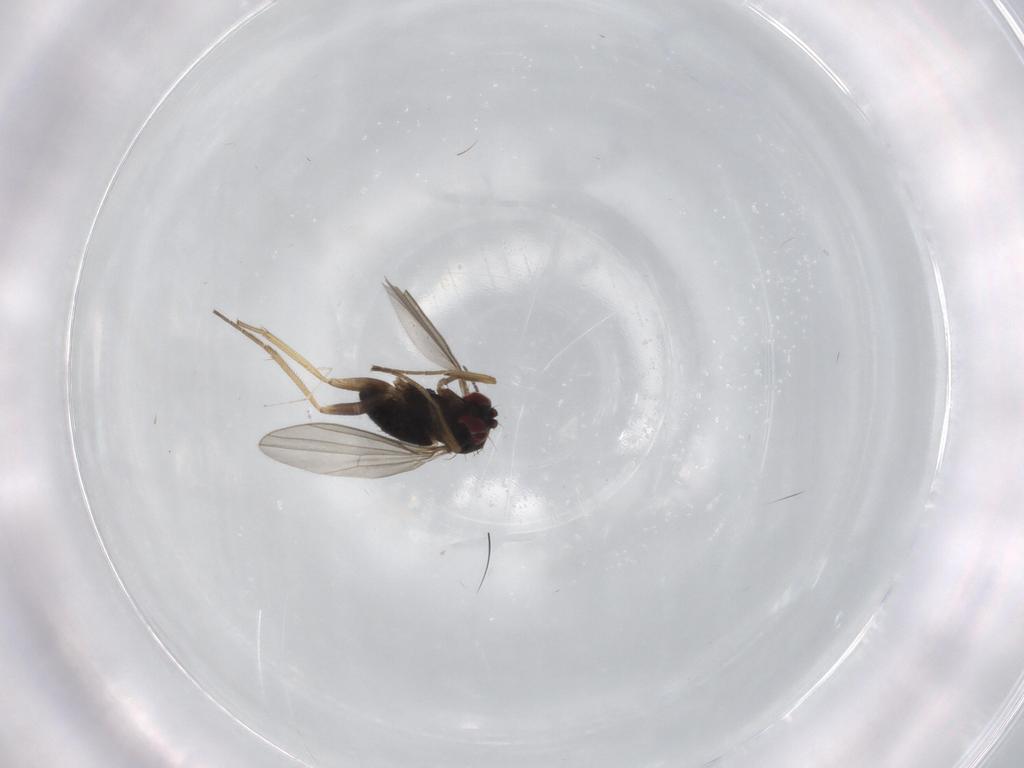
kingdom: Animalia
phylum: Arthropoda
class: Insecta
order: Diptera
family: Sciaridae
